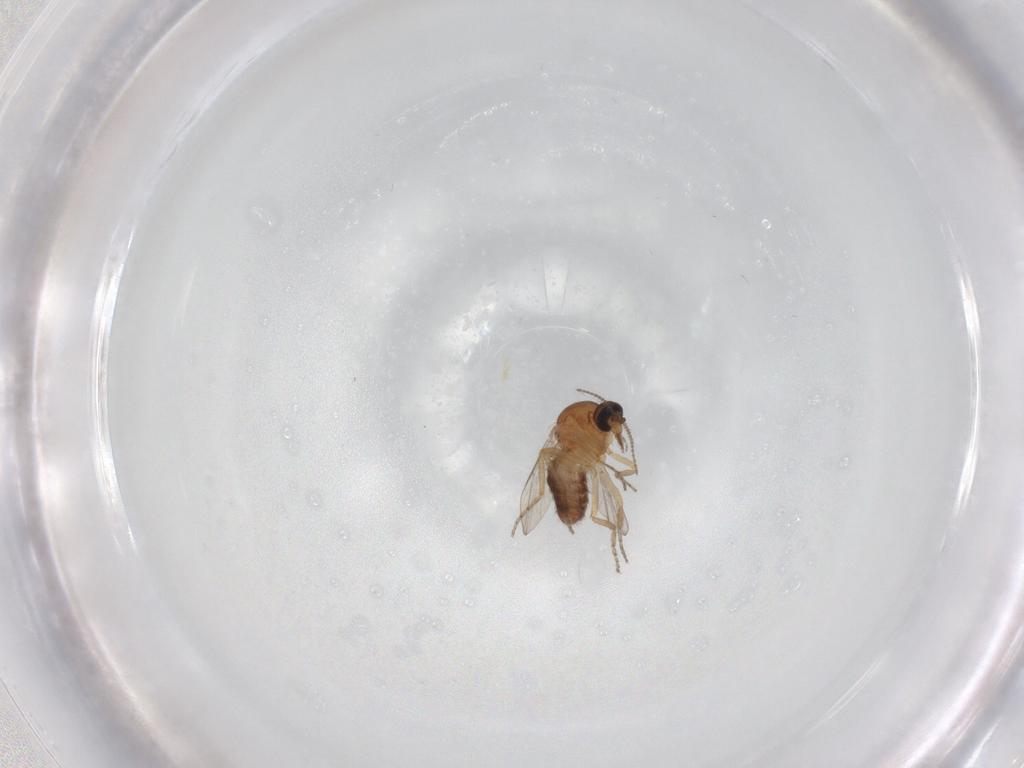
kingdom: Animalia
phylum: Arthropoda
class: Insecta
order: Diptera
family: Ceratopogonidae
